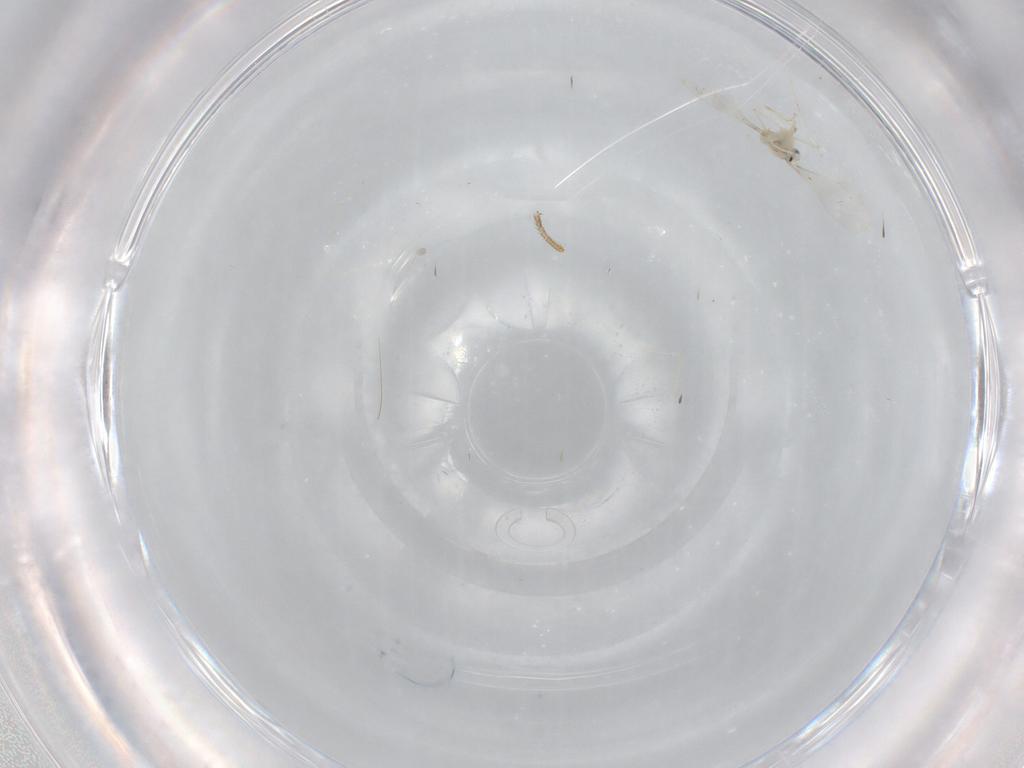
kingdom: Animalia
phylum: Arthropoda
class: Insecta
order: Diptera
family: Cecidomyiidae
